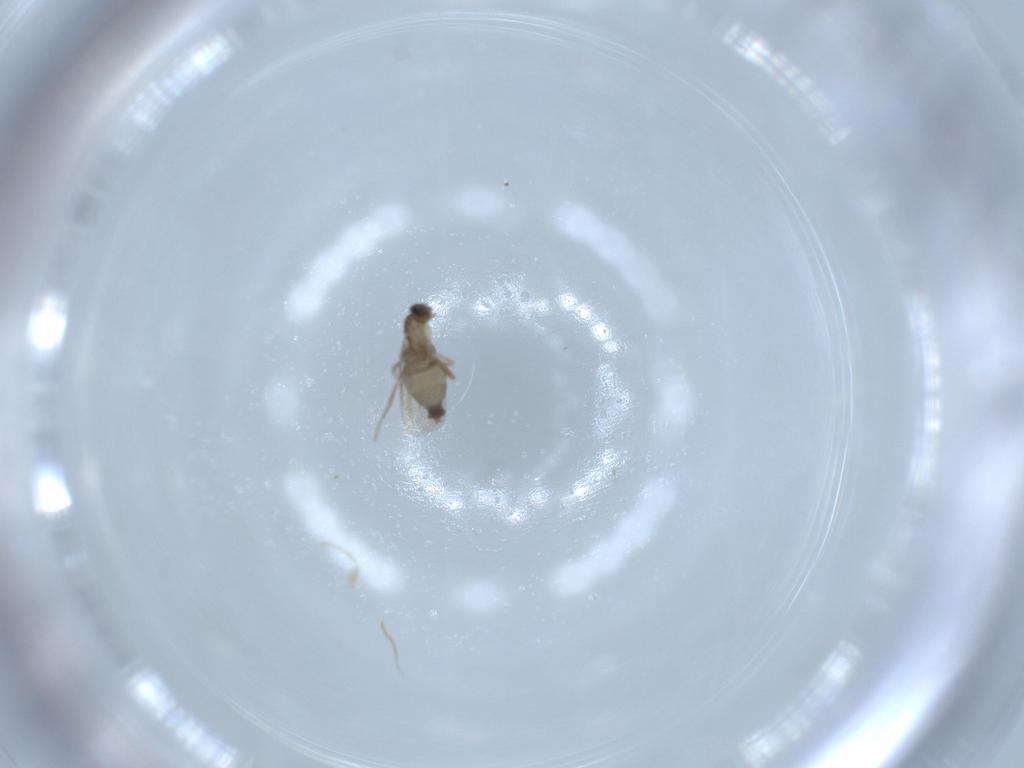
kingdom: Animalia
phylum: Arthropoda
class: Insecta
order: Diptera
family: Phoridae
